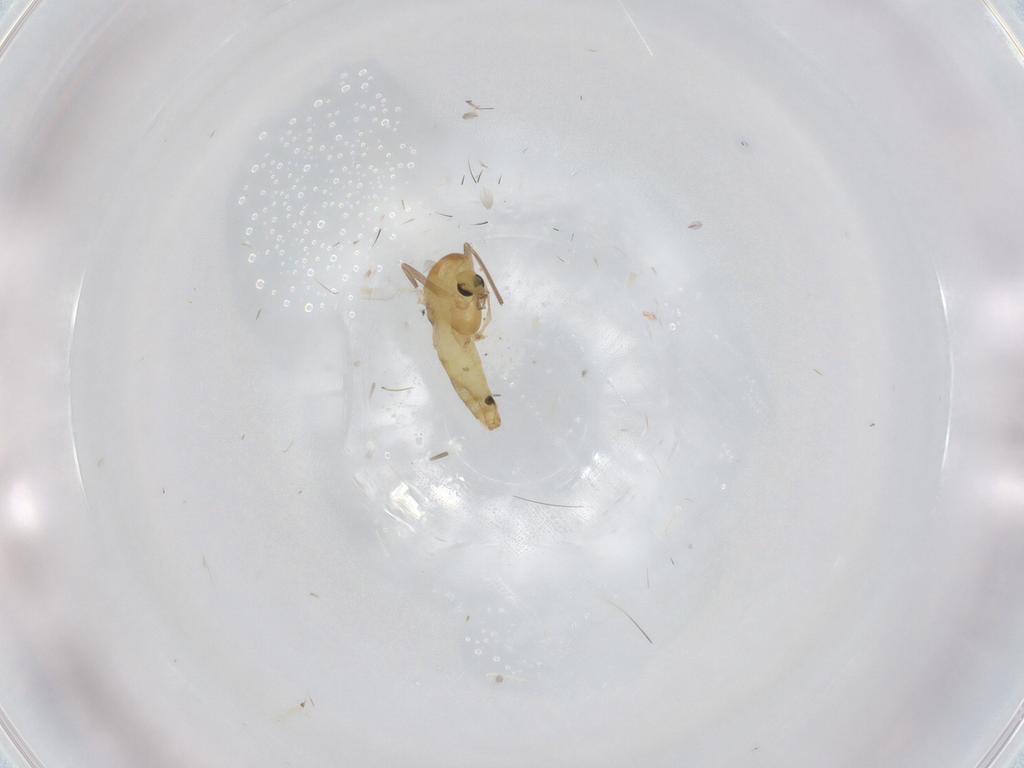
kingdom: Animalia
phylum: Arthropoda
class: Insecta
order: Diptera
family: Chironomidae
